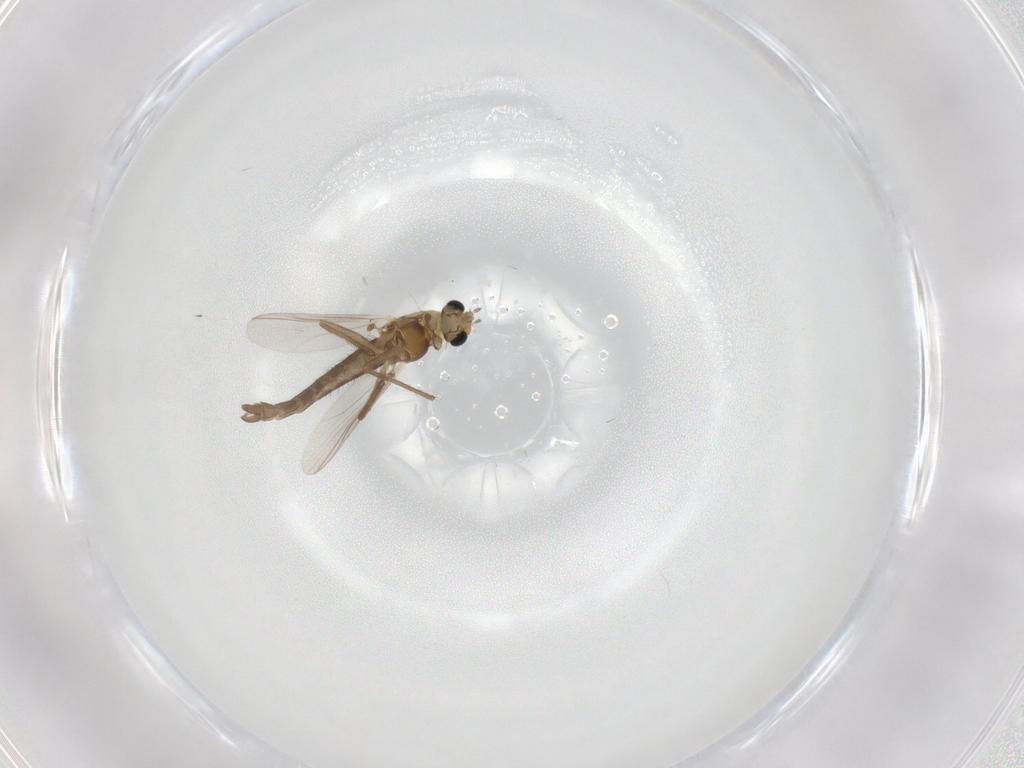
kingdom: Animalia
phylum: Arthropoda
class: Insecta
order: Diptera
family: Chironomidae
